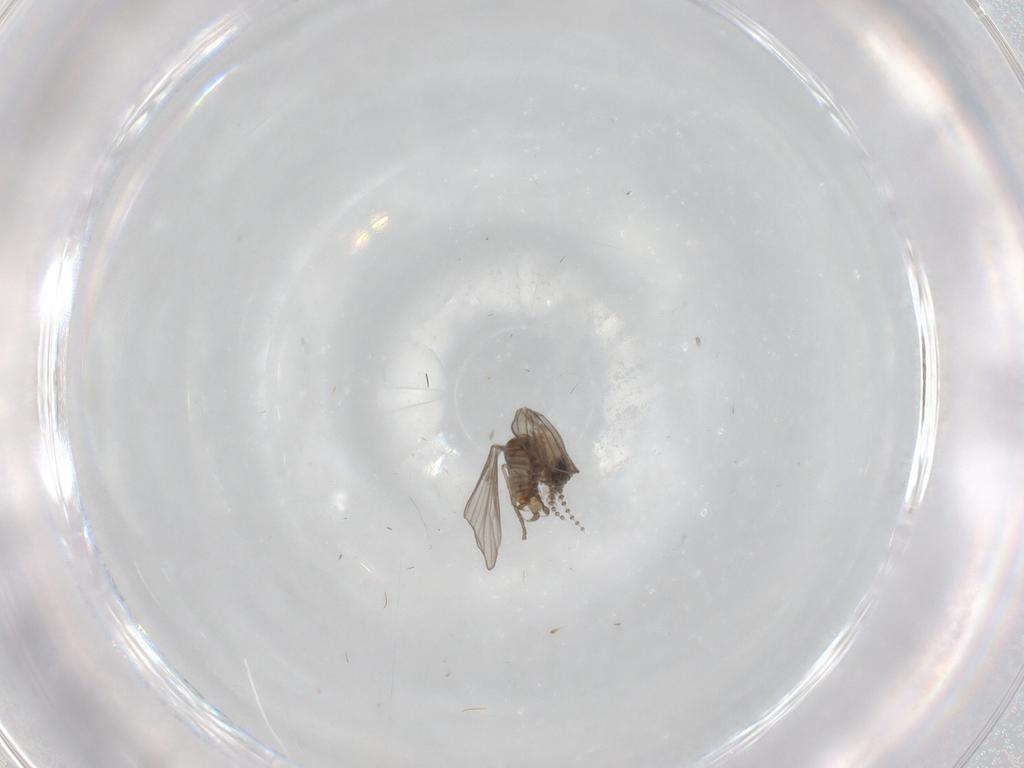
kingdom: Animalia
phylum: Arthropoda
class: Insecta
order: Diptera
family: Psychodidae
